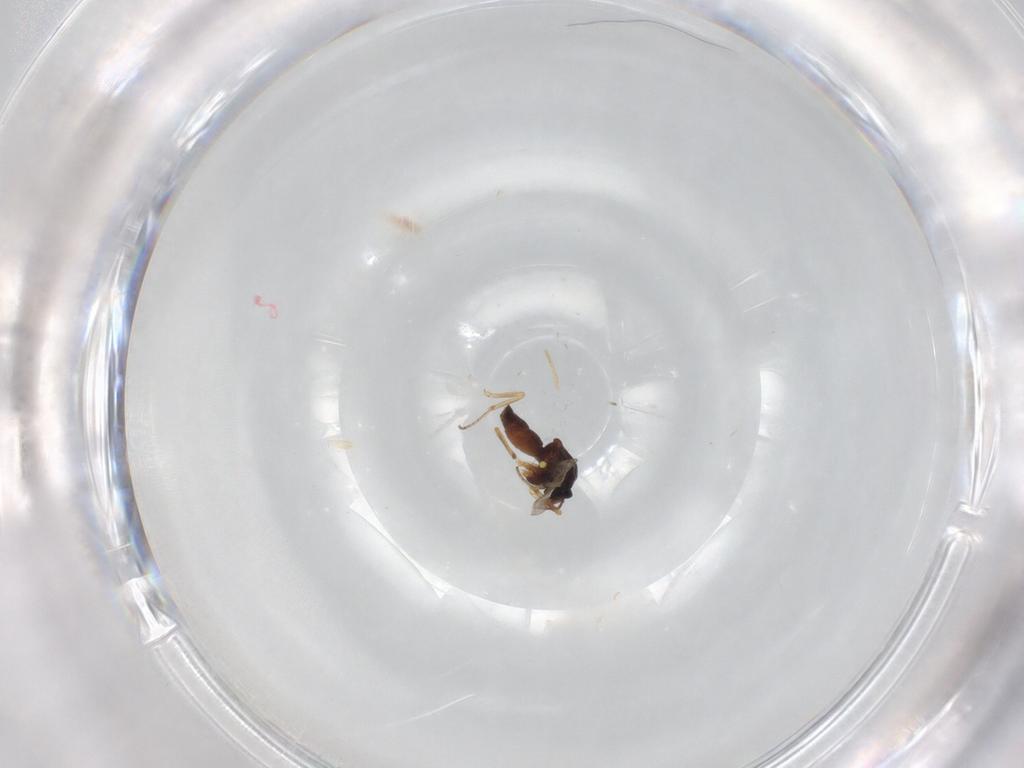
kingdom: Animalia
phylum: Arthropoda
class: Insecta
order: Diptera
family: Ceratopogonidae
